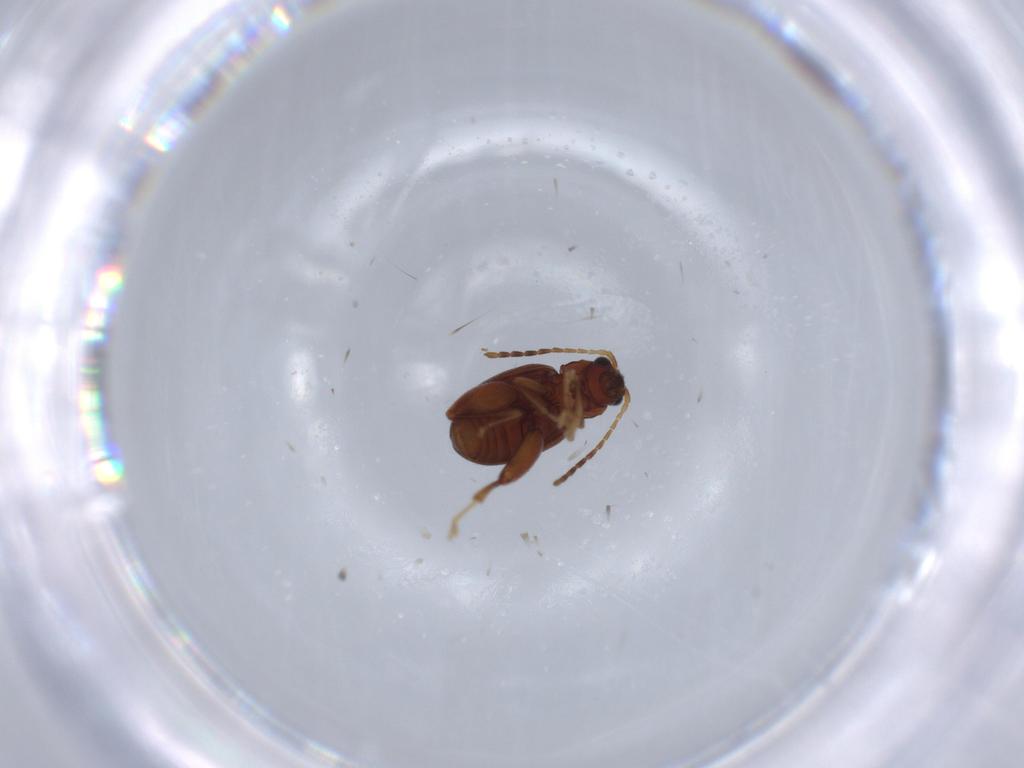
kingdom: Animalia
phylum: Arthropoda
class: Insecta
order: Coleoptera
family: Chrysomelidae
